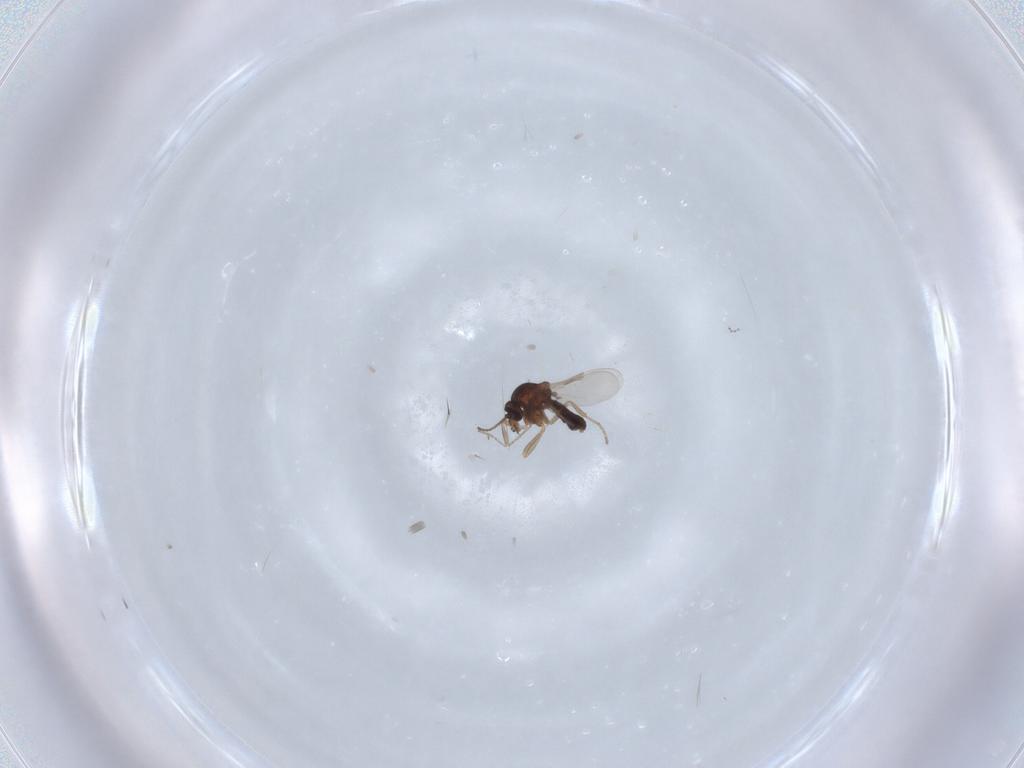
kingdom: Animalia
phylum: Arthropoda
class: Insecta
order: Diptera
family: Ceratopogonidae
